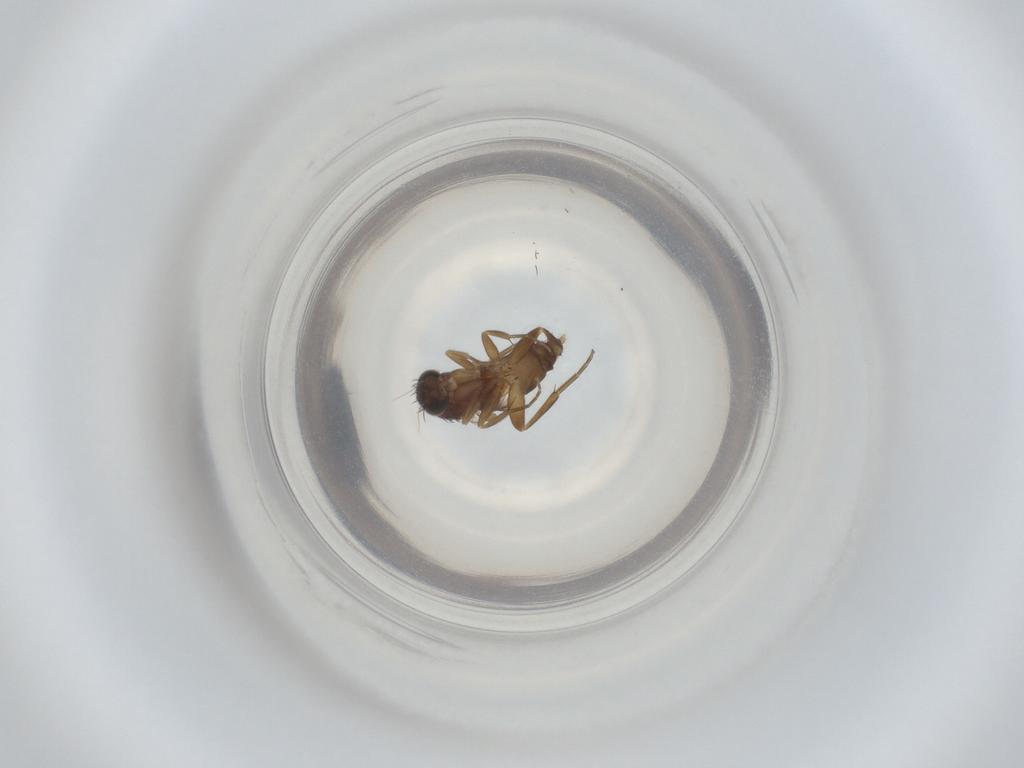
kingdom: Animalia
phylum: Arthropoda
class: Insecta
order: Diptera
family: Phoridae
